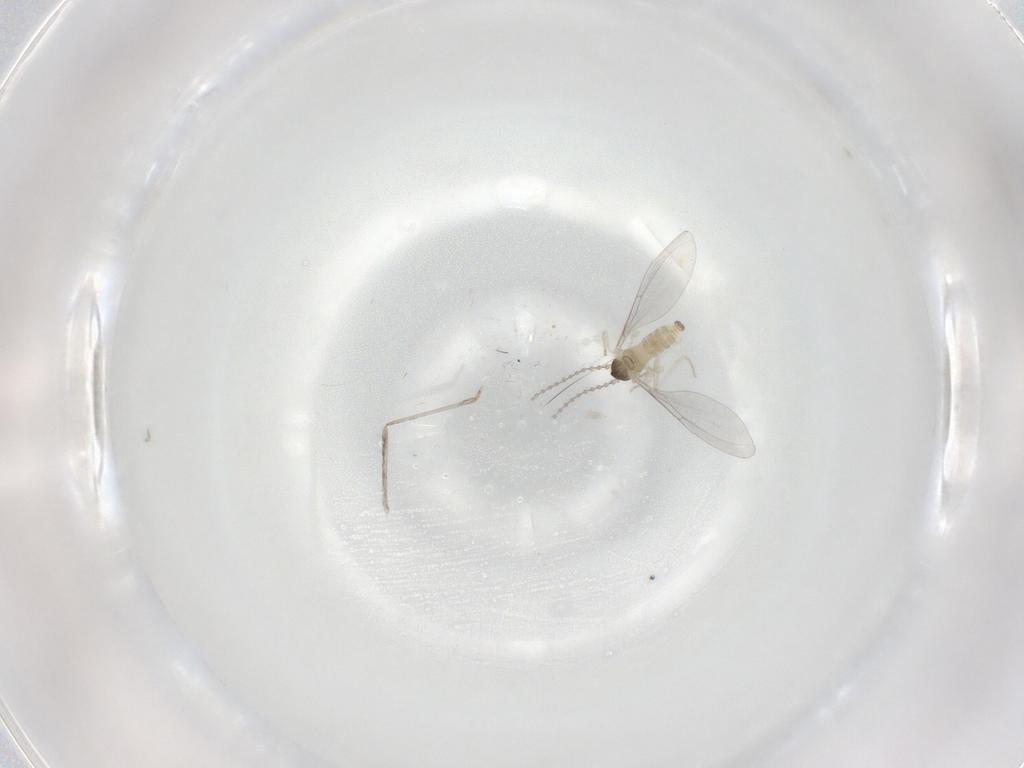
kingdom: Animalia
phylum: Arthropoda
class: Insecta
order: Diptera
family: Cecidomyiidae
